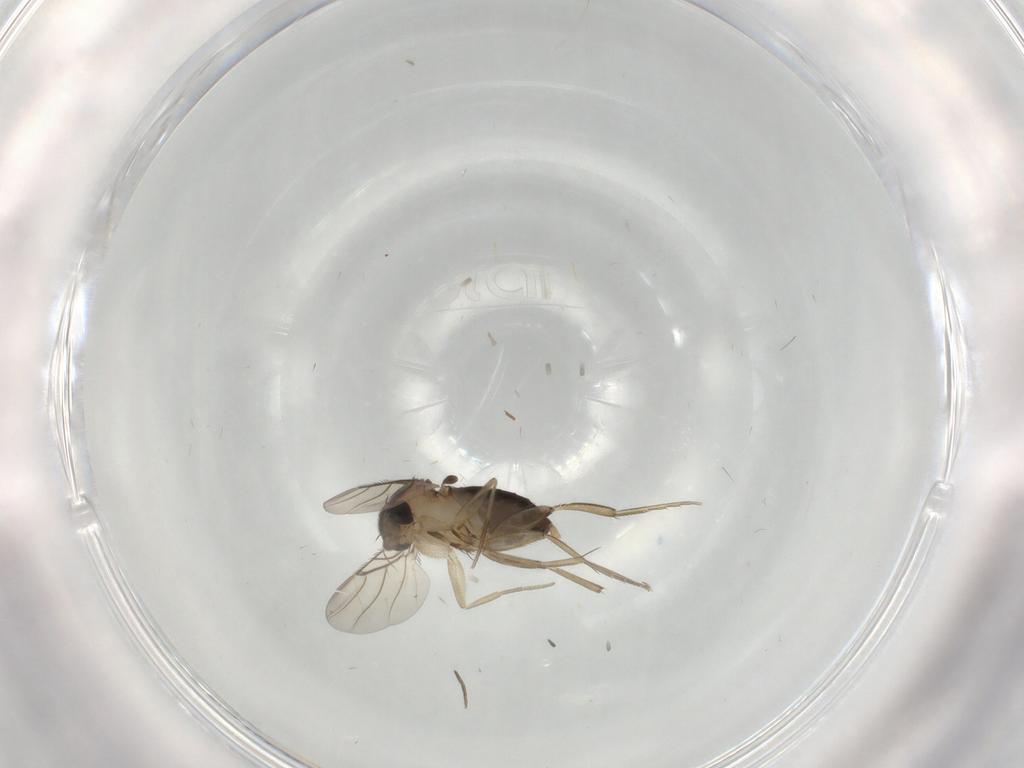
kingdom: Animalia
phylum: Arthropoda
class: Insecta
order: Diptera
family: Phoridae
